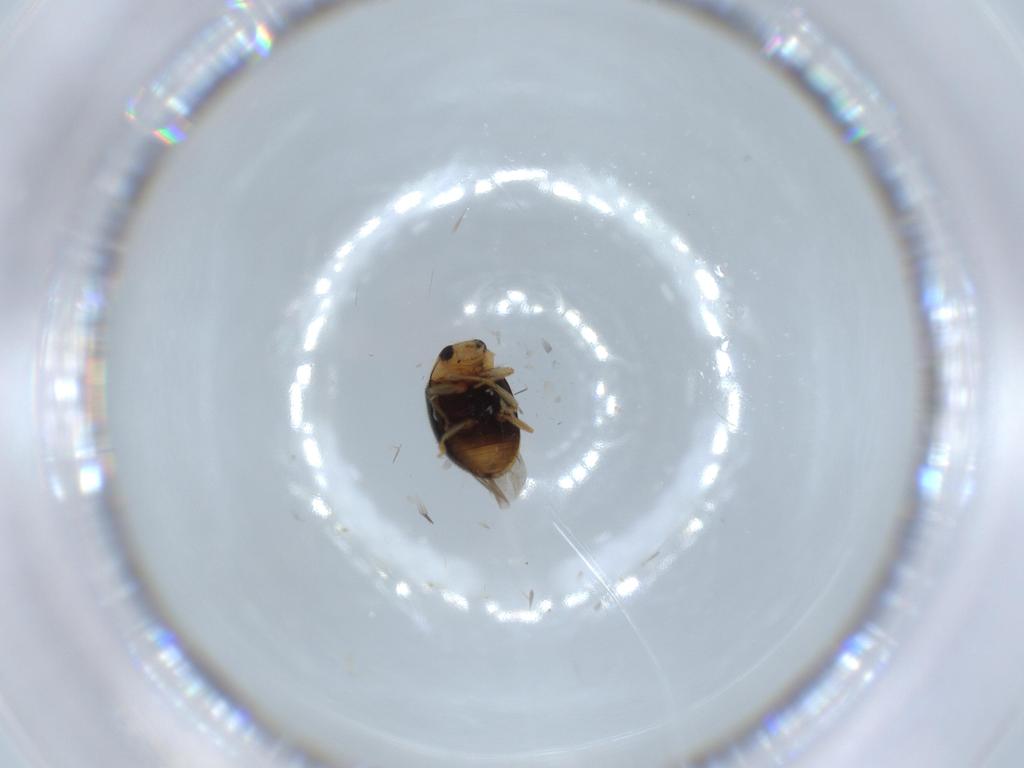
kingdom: Animalia
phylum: Arthropoda
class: Insecta
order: Coleoptera
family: Coccinellidae
